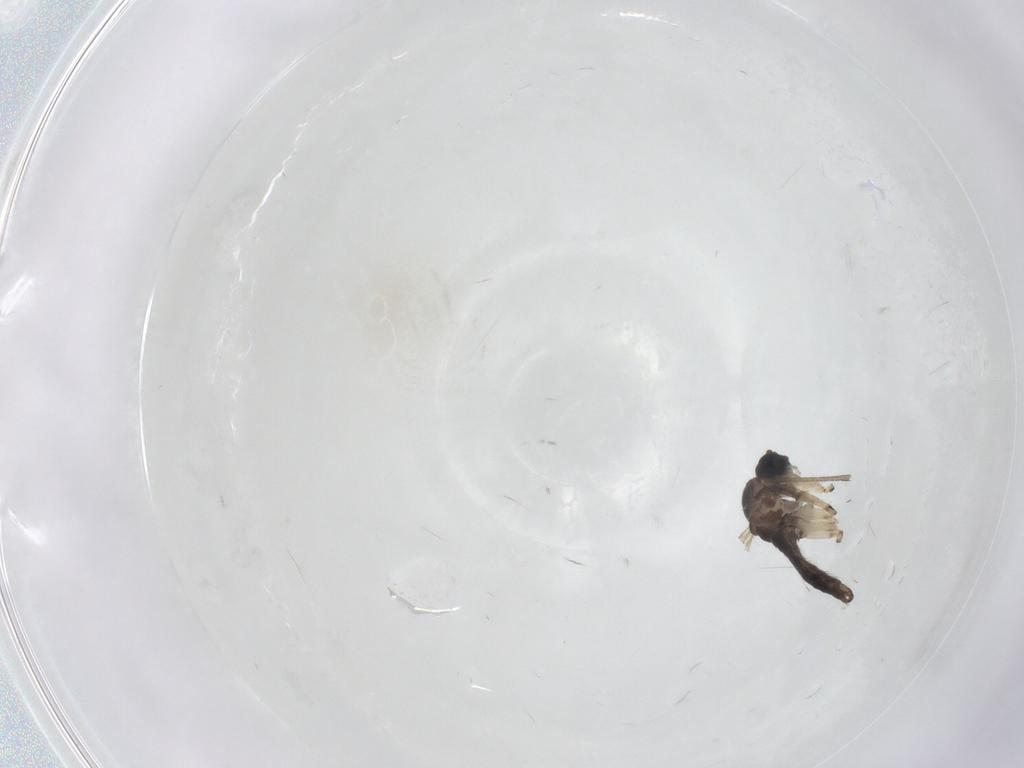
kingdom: Animalia
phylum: Arthropoda
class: Insecta
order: Diptera
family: Sciaridae
